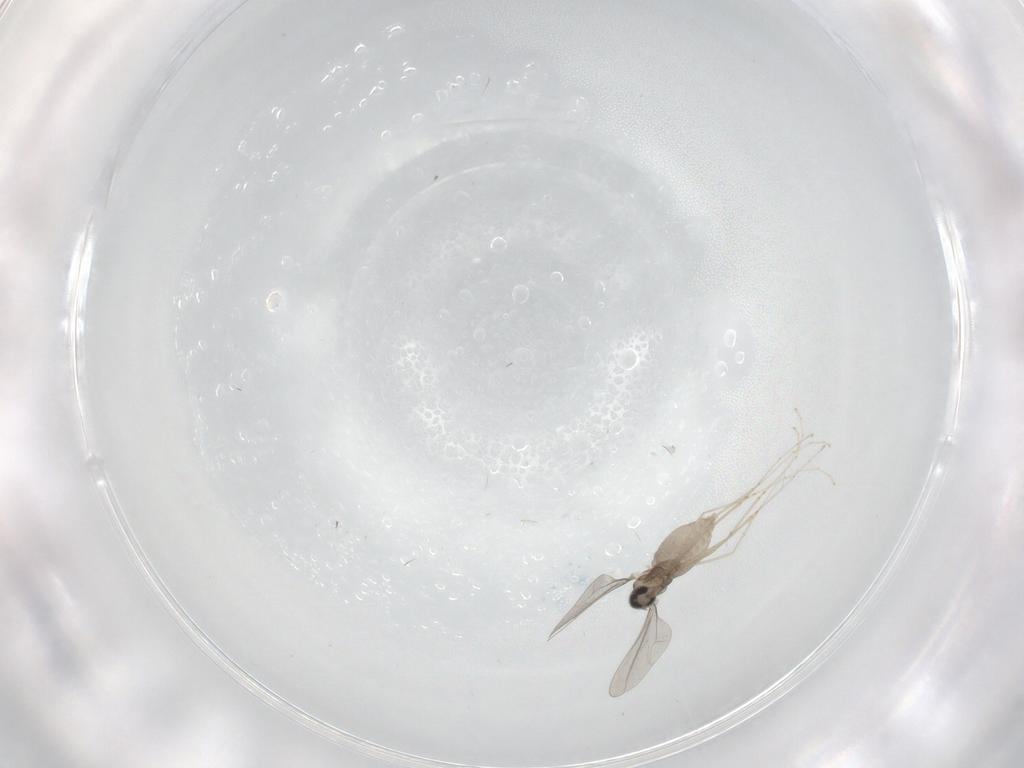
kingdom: Animalia
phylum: Arthropoda
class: Insecta
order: Diptera
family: Cecidomyiidae
